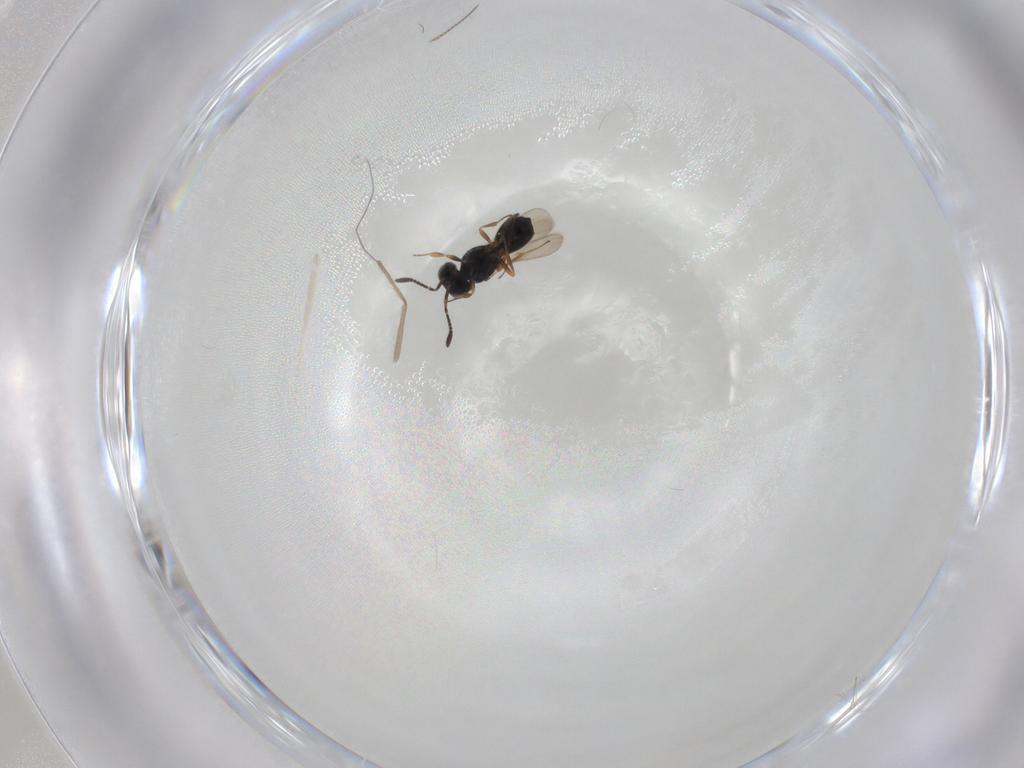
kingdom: Animalia
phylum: Arthropoda
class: Insecta
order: Hymenoptera
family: Scelionidae
